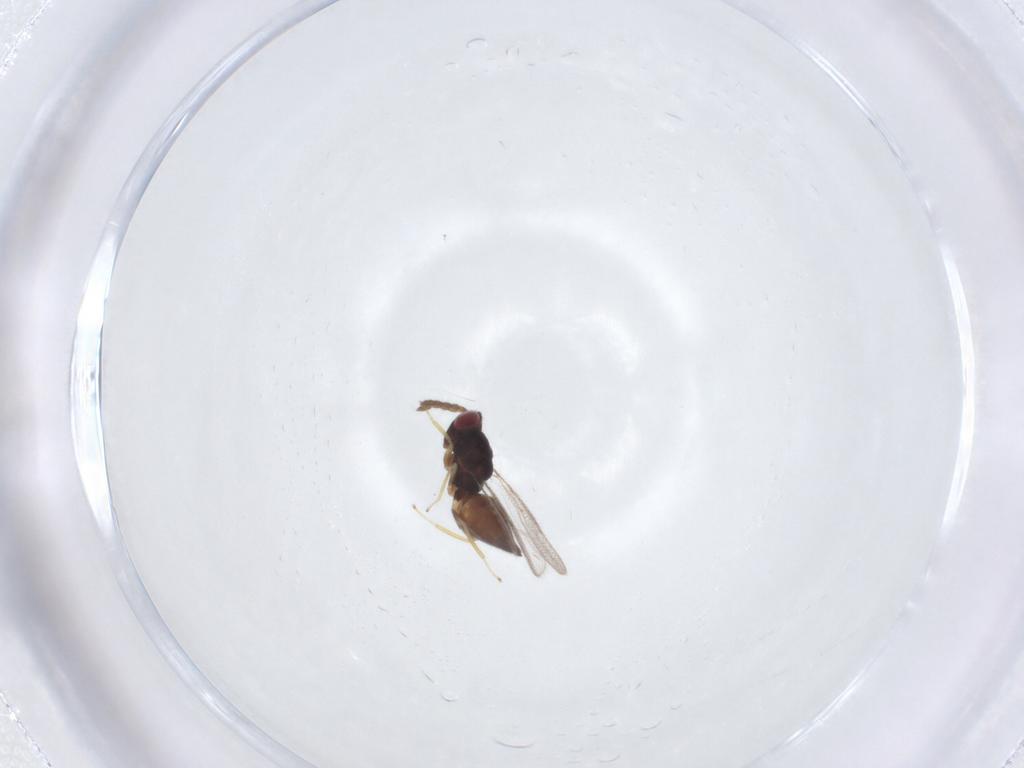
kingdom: Animalia
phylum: Arthropoda
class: Insecta
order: Hymenoptera
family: Eulophidae
